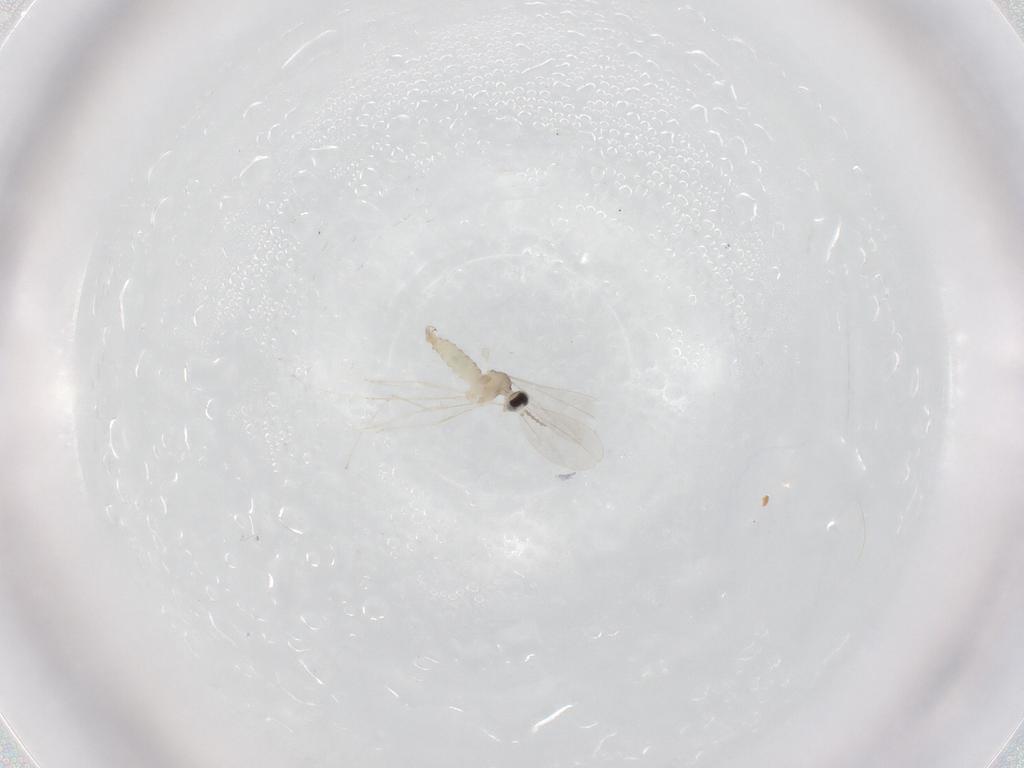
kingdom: Animalia
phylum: Arthropoda
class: Insecta
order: Diptera
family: Cecidomyiidae
